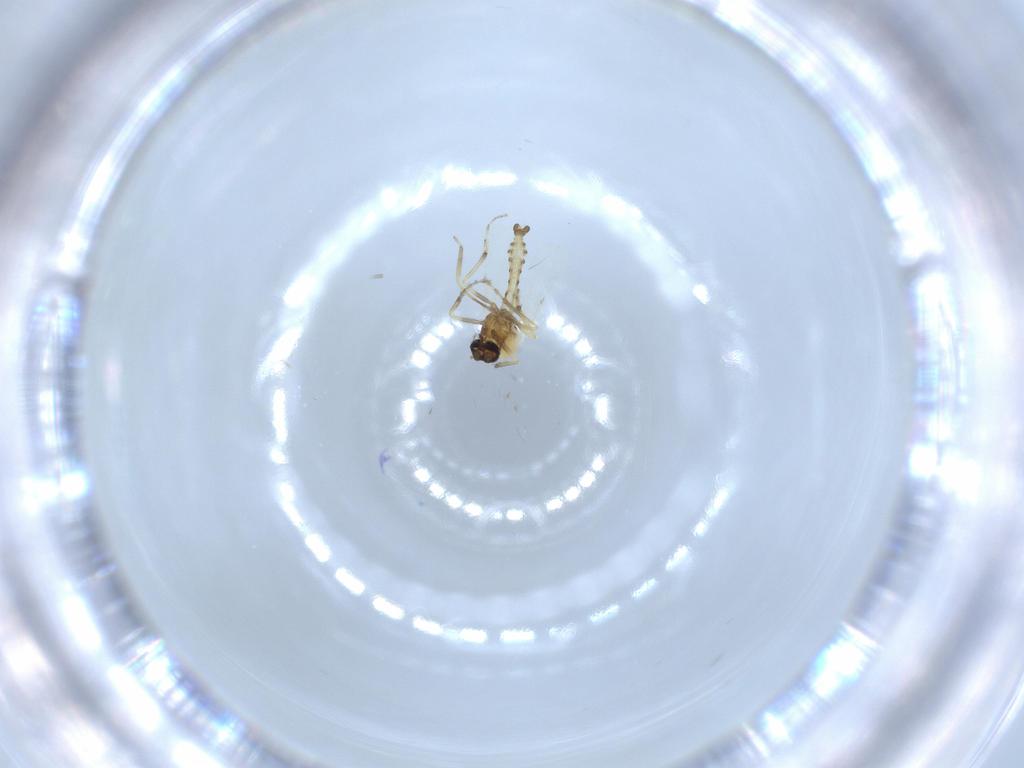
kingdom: Animalia
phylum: Arthropoda
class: Insecta
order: Diptera
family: Ceratopogonidae
